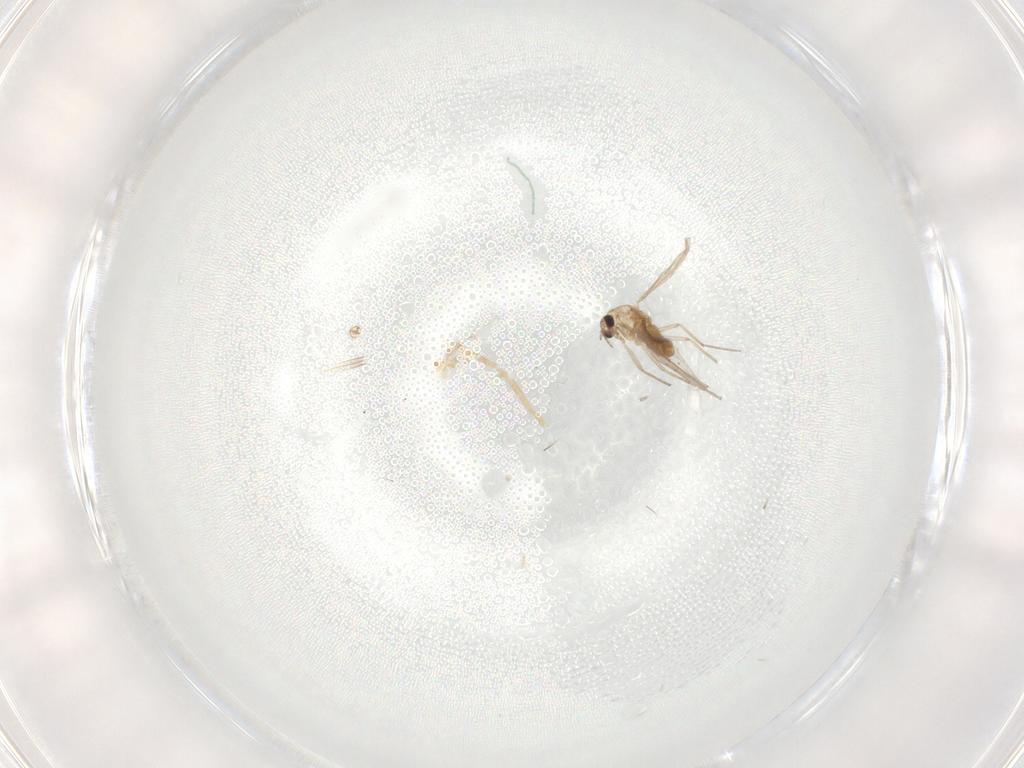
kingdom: Animalia
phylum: Arthropoda
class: Insecta
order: Diptera
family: Chironomidae
